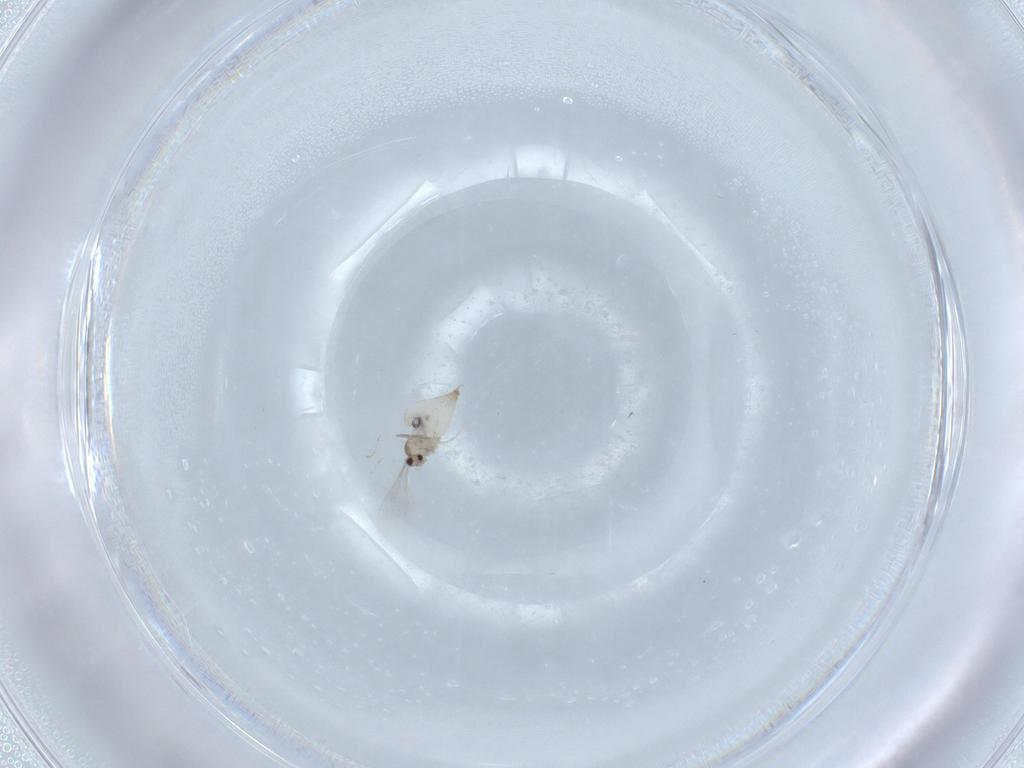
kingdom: Animalia
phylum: Arthropoda
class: Insecta
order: Diptera
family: Cecidomyiidae
